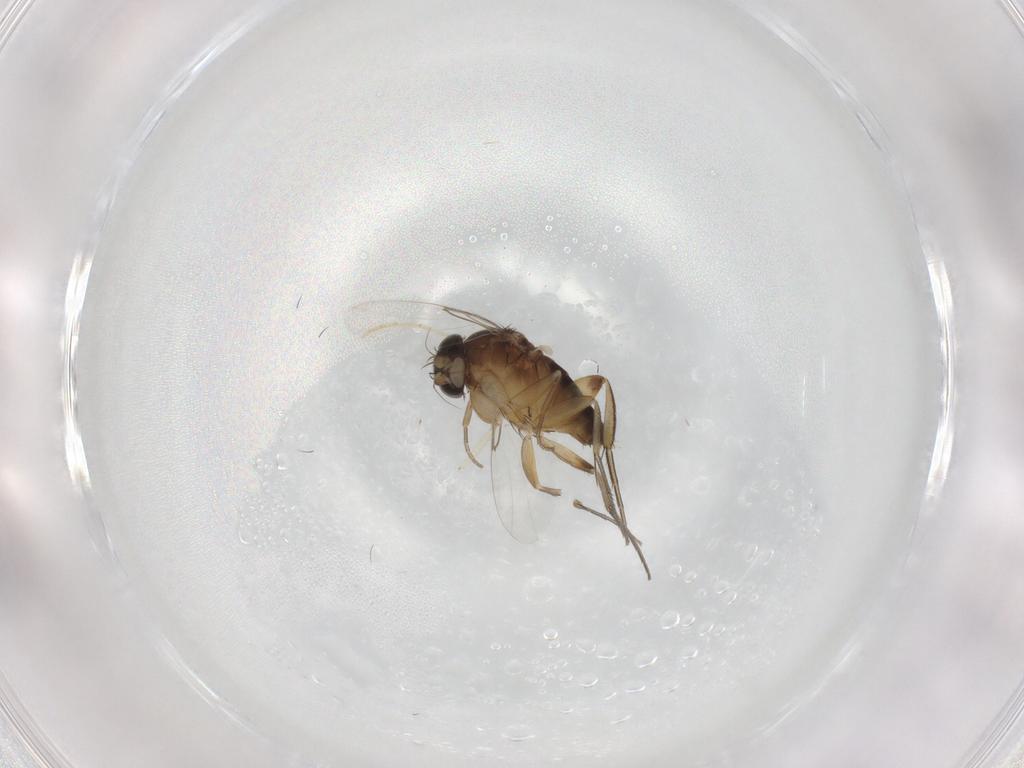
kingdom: Animalia
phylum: Arthropoda
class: Insecta
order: Diptera
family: Phoridae
